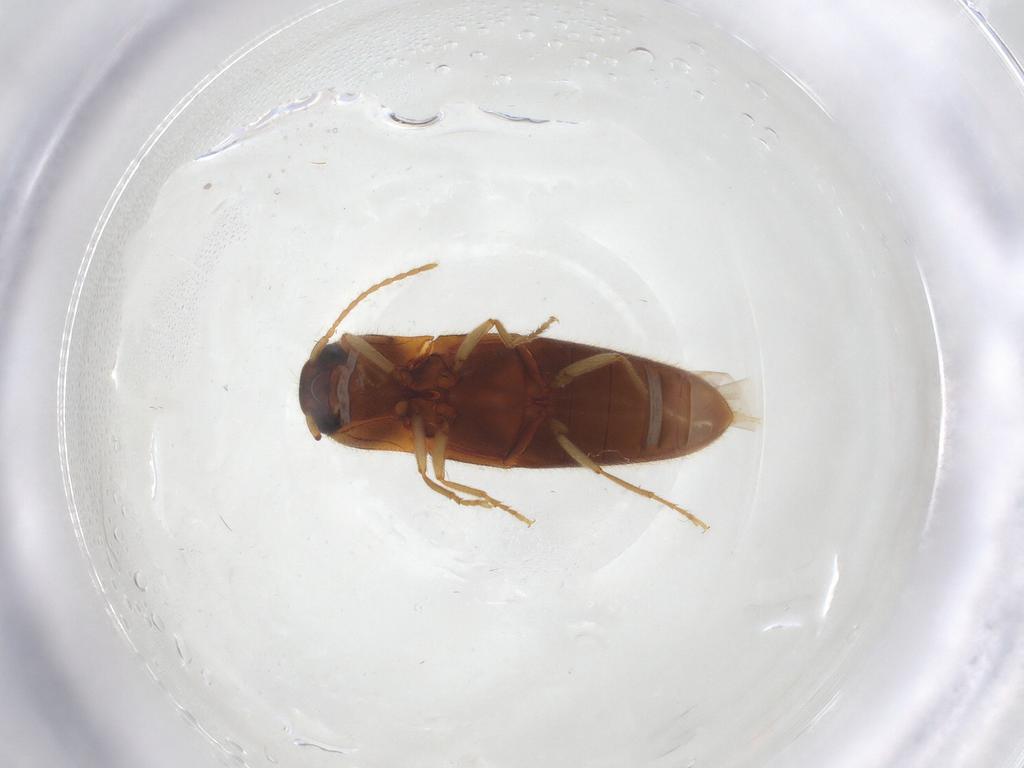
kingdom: Animalia
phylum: Arthropoda
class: Insecta
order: Coleoptera
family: Elateridae
